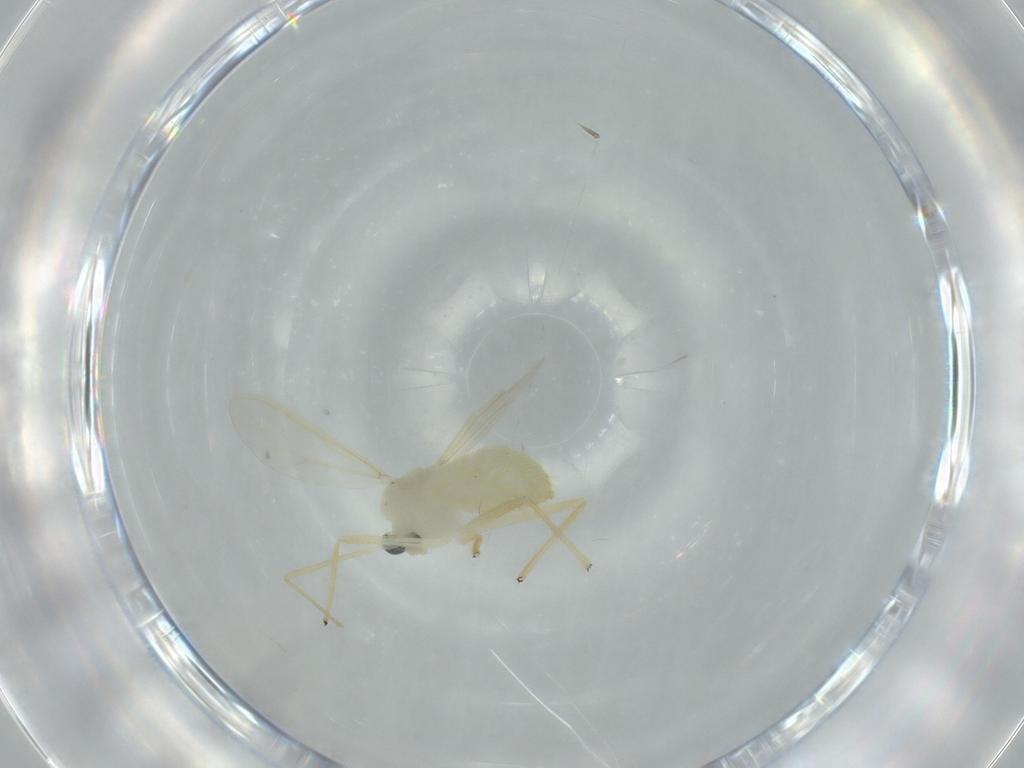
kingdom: Animalia
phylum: Arthropoda
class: Insecta
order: Diptera
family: Chironomidae
